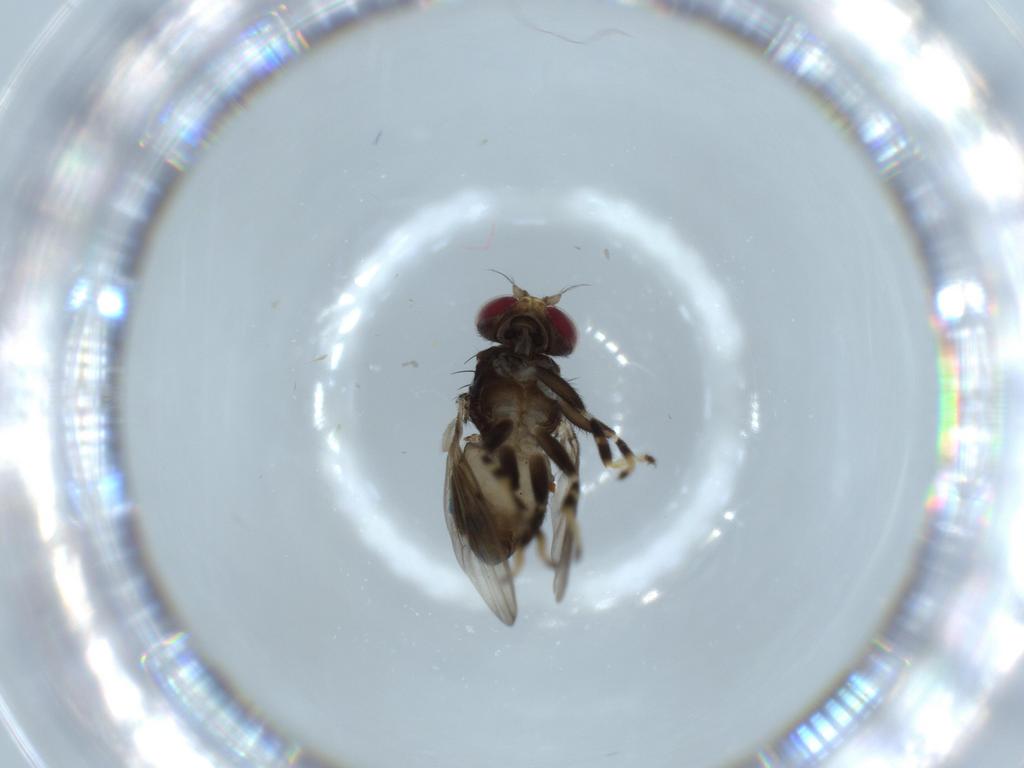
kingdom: Animalia
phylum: Arthropoda
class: Insecta
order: Diptera
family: Ephydridae
